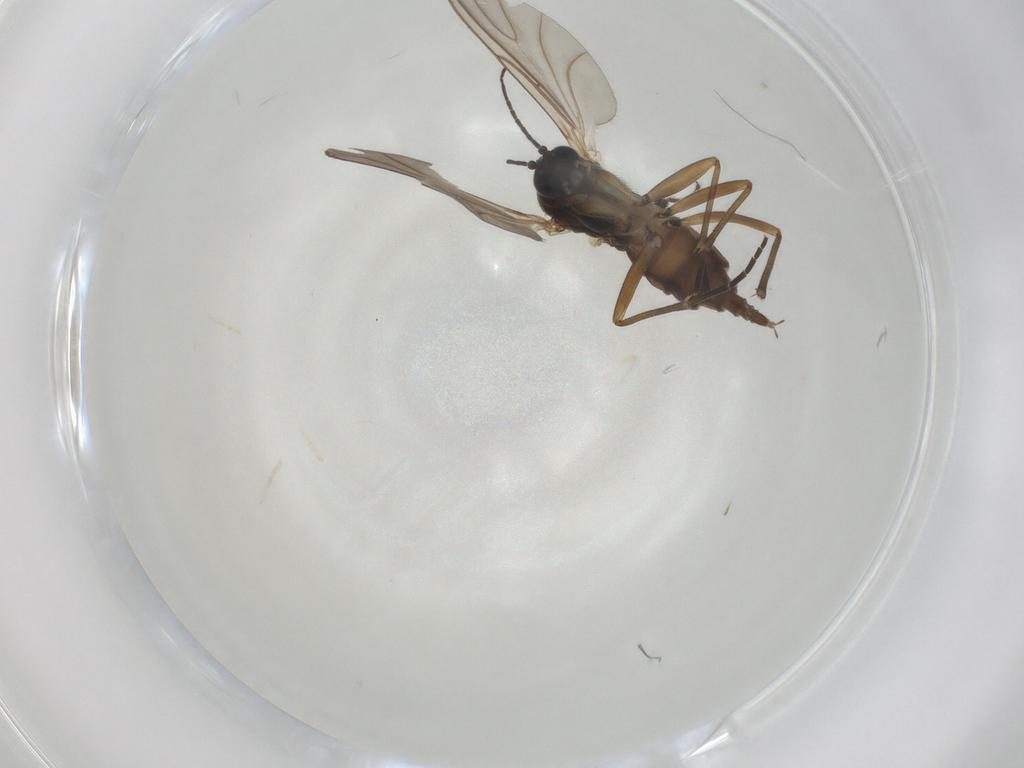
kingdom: Animalia
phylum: Arthropoda
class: Insecta
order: Diptera
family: Sciaridae
